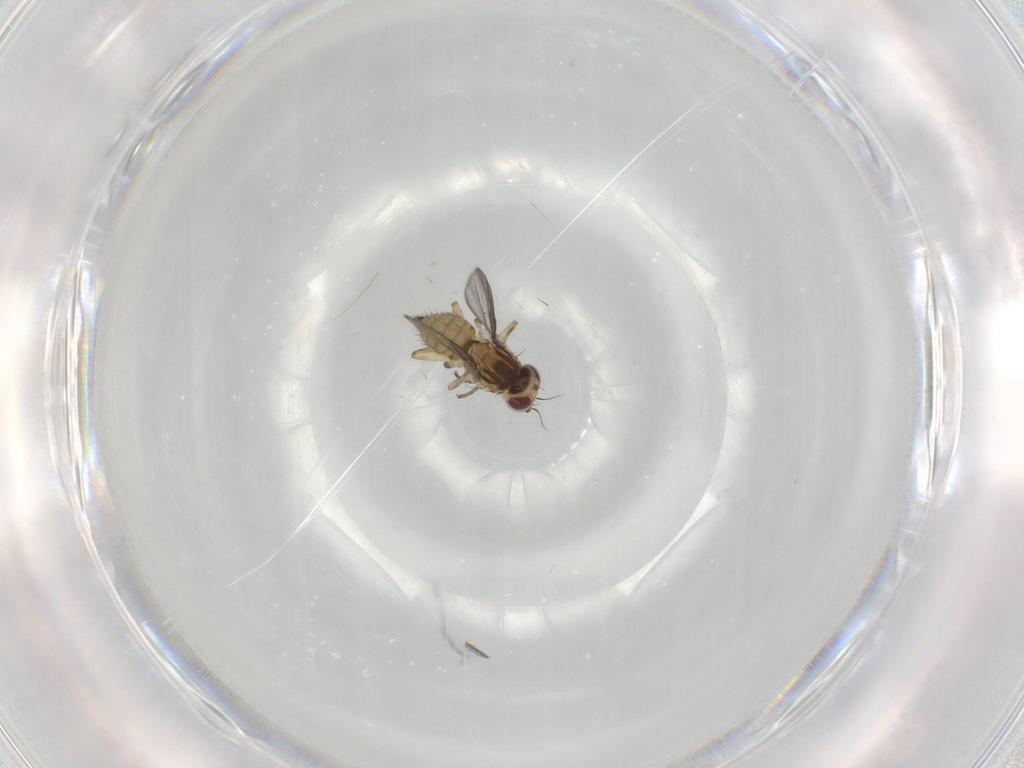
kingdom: Animalia
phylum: Arthropoda
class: Insecta
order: Diptera
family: Agromyzidae
